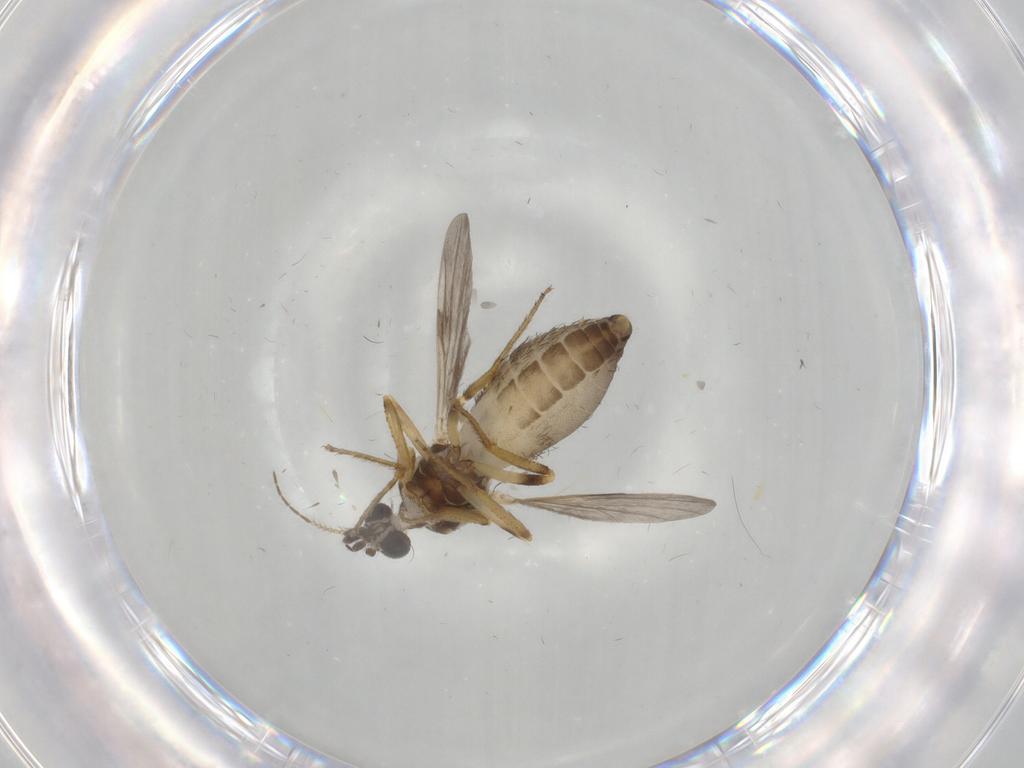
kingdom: Animalia
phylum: Arthropoda
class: Insecta
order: Diptera
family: Ceratopogonidae
